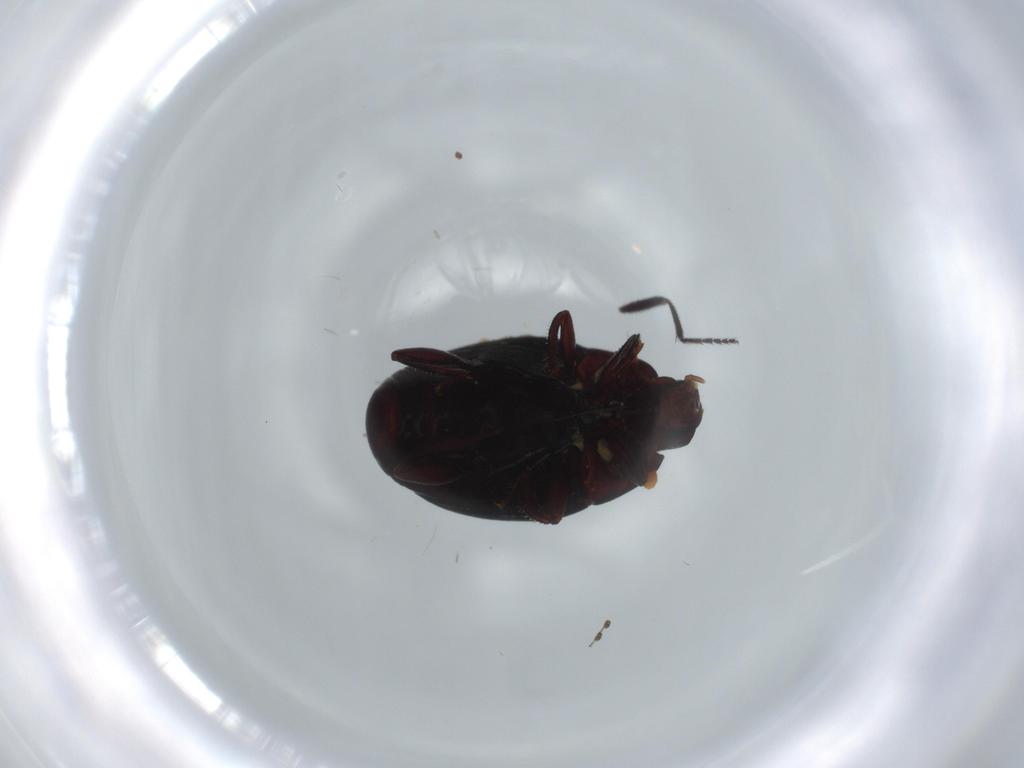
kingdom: Animalia
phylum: Arthropoda
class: Insecta
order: Coleoptera
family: Chrysomelidae
